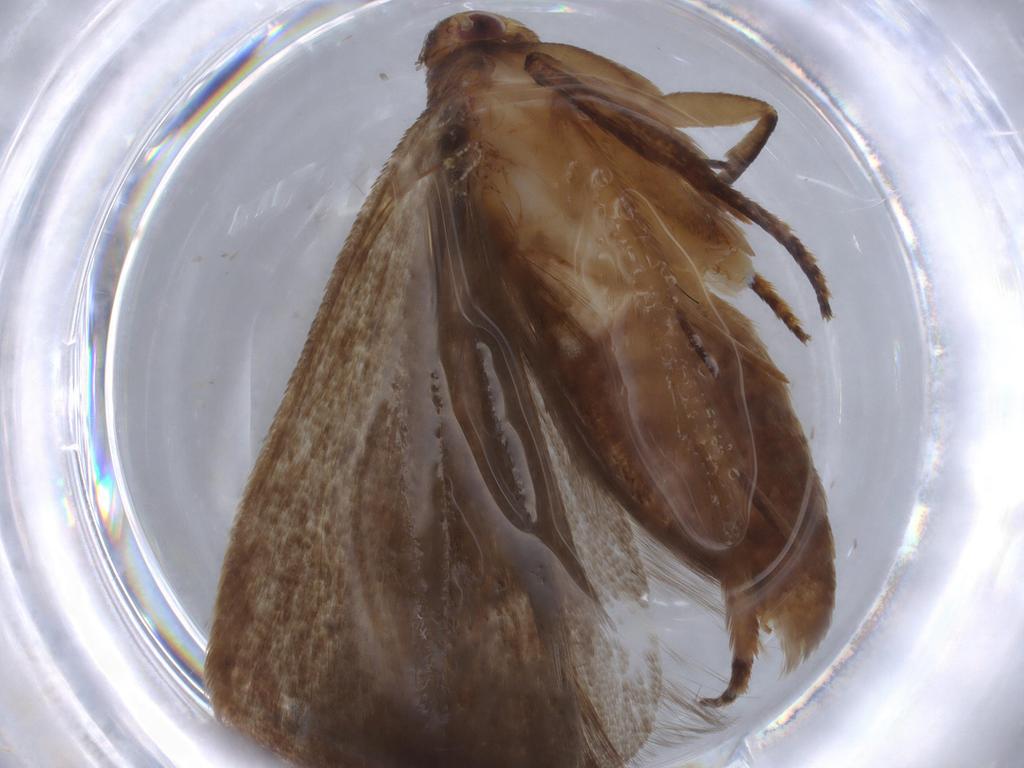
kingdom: Animalia
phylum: Arthropoda
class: Insecta
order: Lepidoptera
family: Gelechiidae
